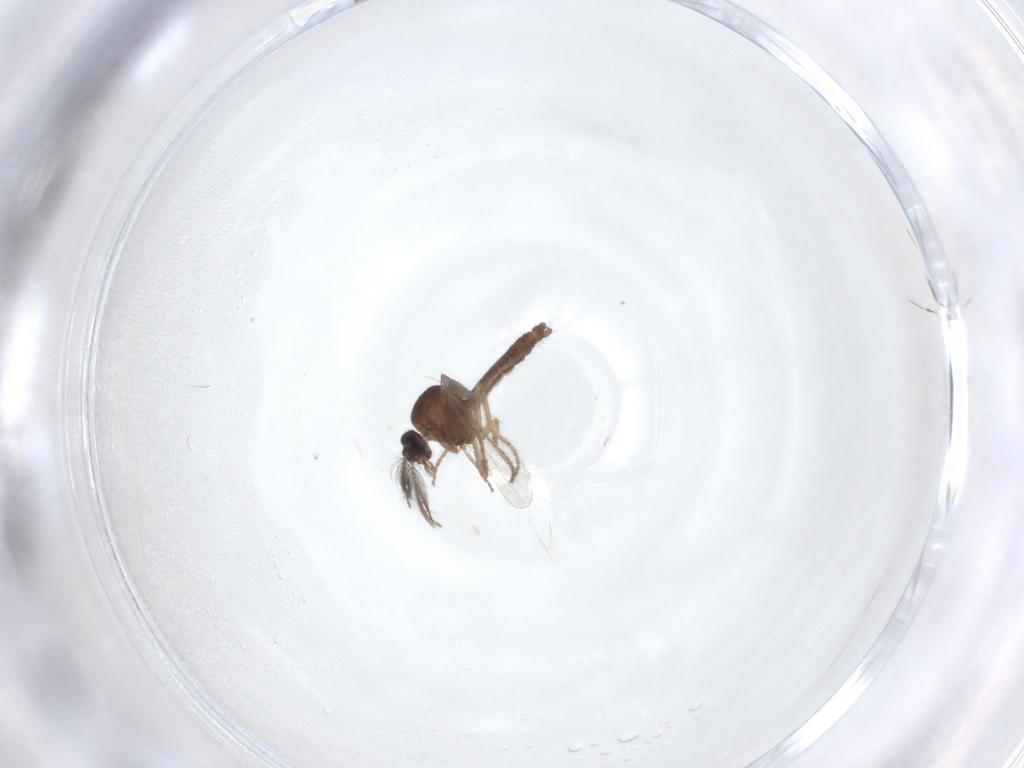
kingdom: Animalia
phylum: Arthropoda
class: Insecta
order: Diptera
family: Ceratopogonidae
